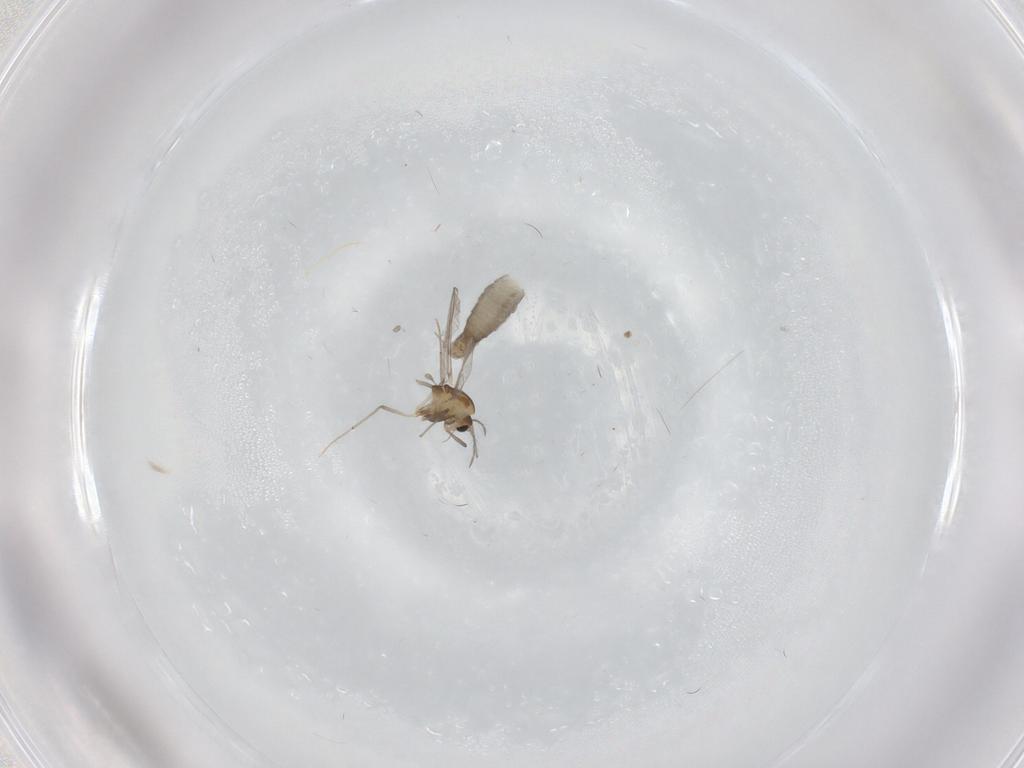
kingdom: Animalia
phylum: Arthropoda
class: Insecta
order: Diptera
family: Chironomidae
